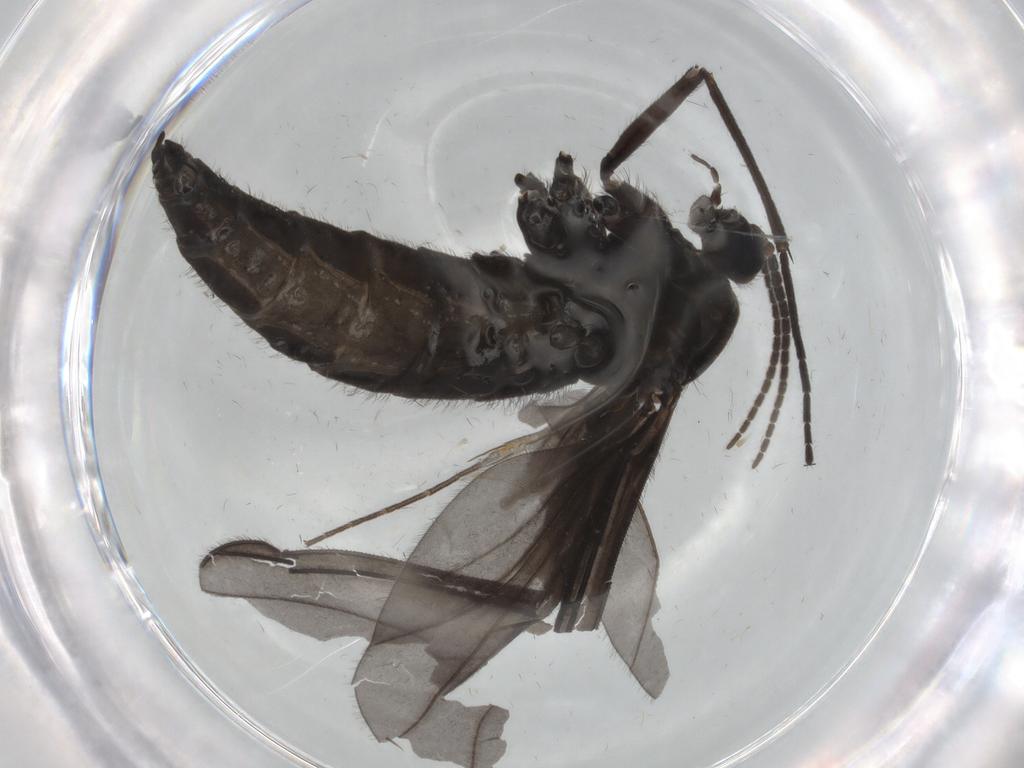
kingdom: Animalia
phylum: Arthropoda
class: Insecta
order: Diptera
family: Sciaridae
